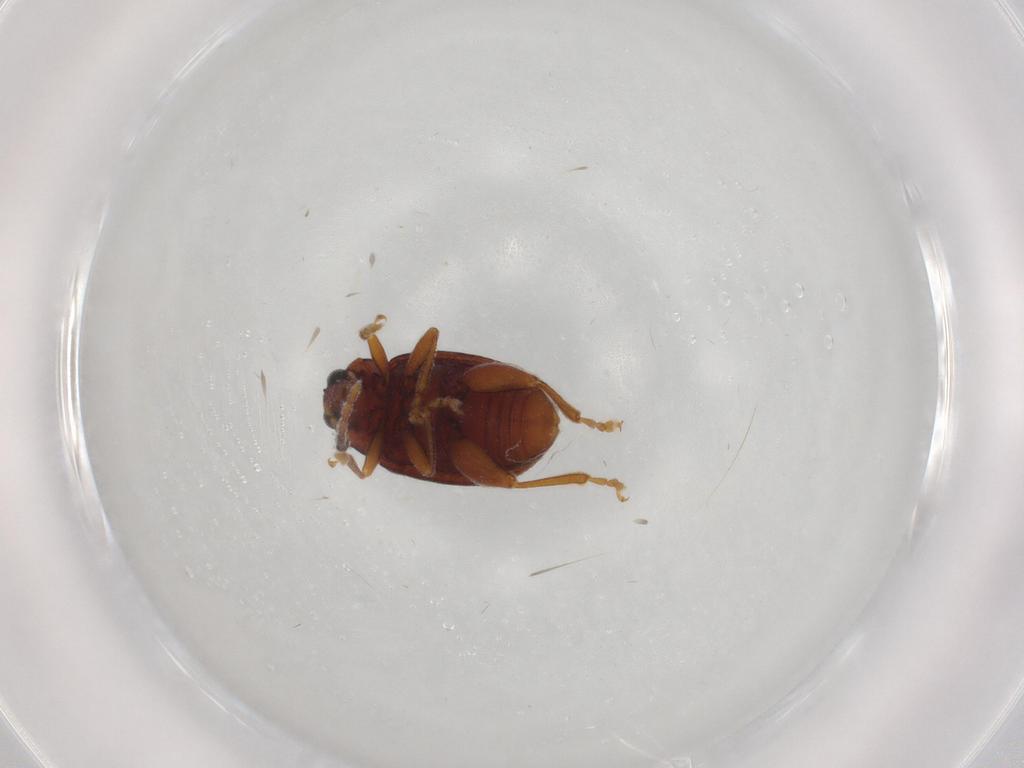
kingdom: Animalia
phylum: Arthropoda
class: Insecta
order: Coleoptera
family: Chrysomelidae
